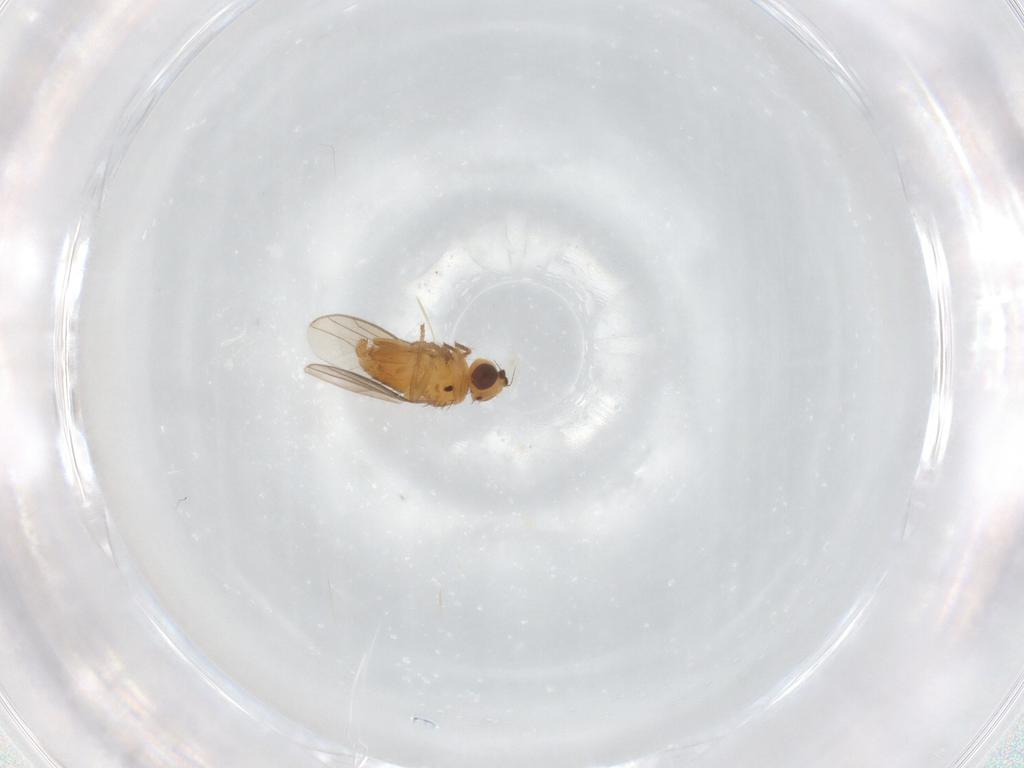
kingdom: Animalia
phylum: Arthropoda
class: Insecta
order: Diptera
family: Chloropidae
